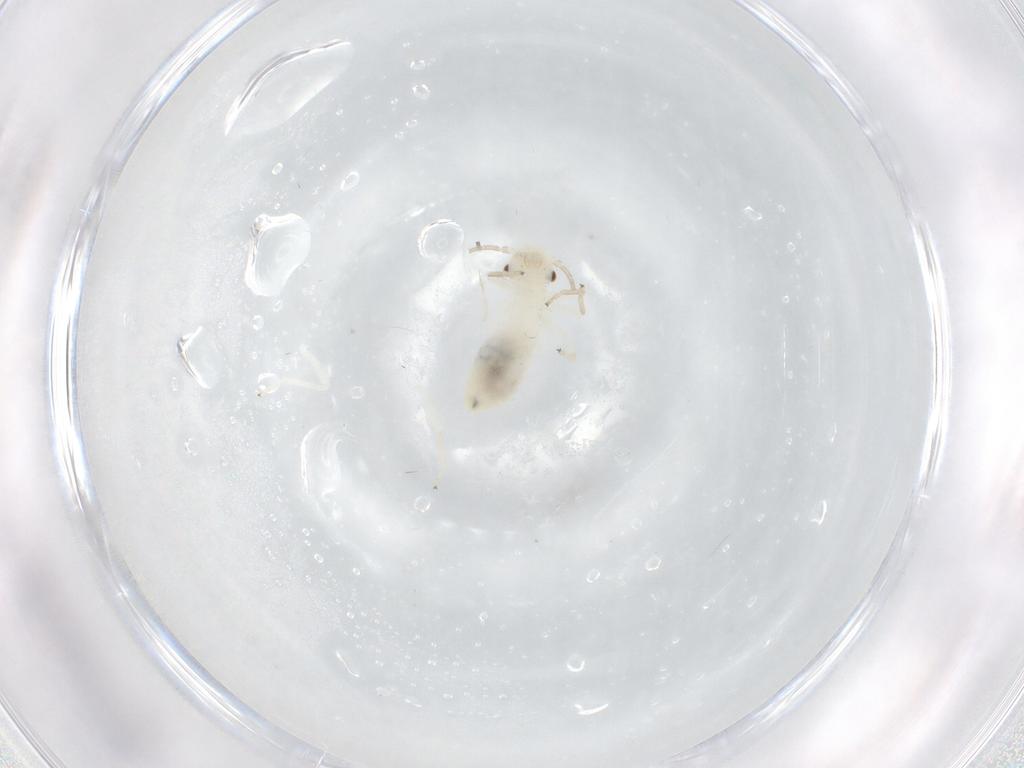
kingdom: Animalia
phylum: Arthropoda
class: Insecta
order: Psocodea
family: Caeciliusidae
